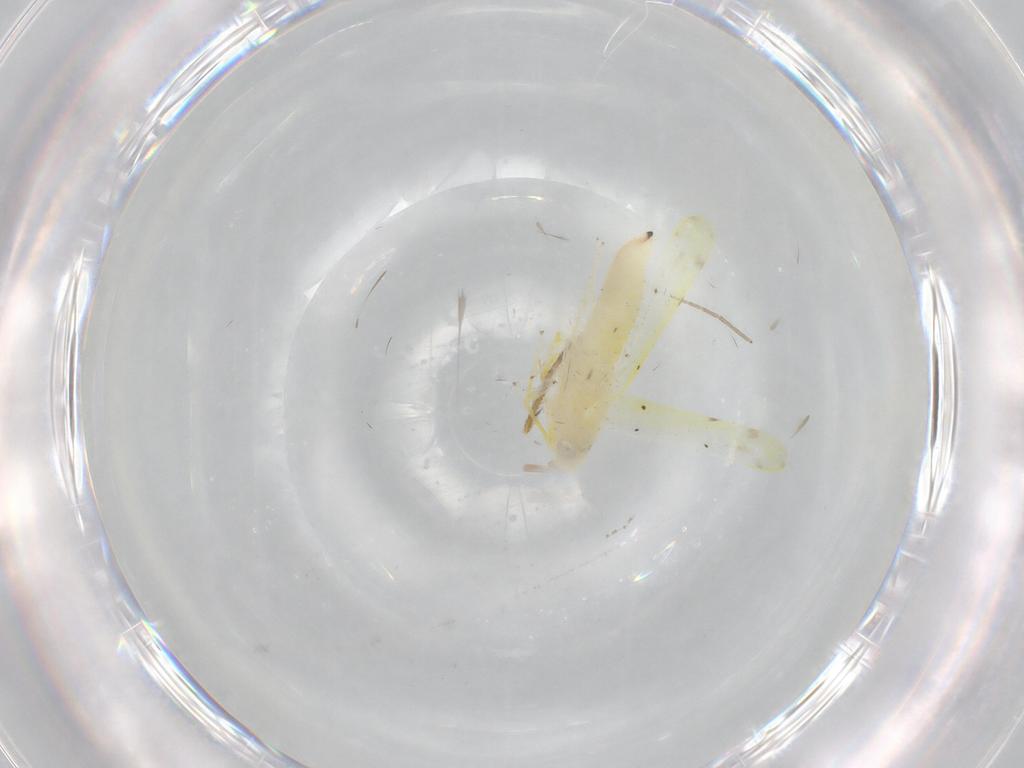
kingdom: Animalia
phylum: Arthropoda
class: Insecta
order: Hemiptera
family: Cicadellidae
